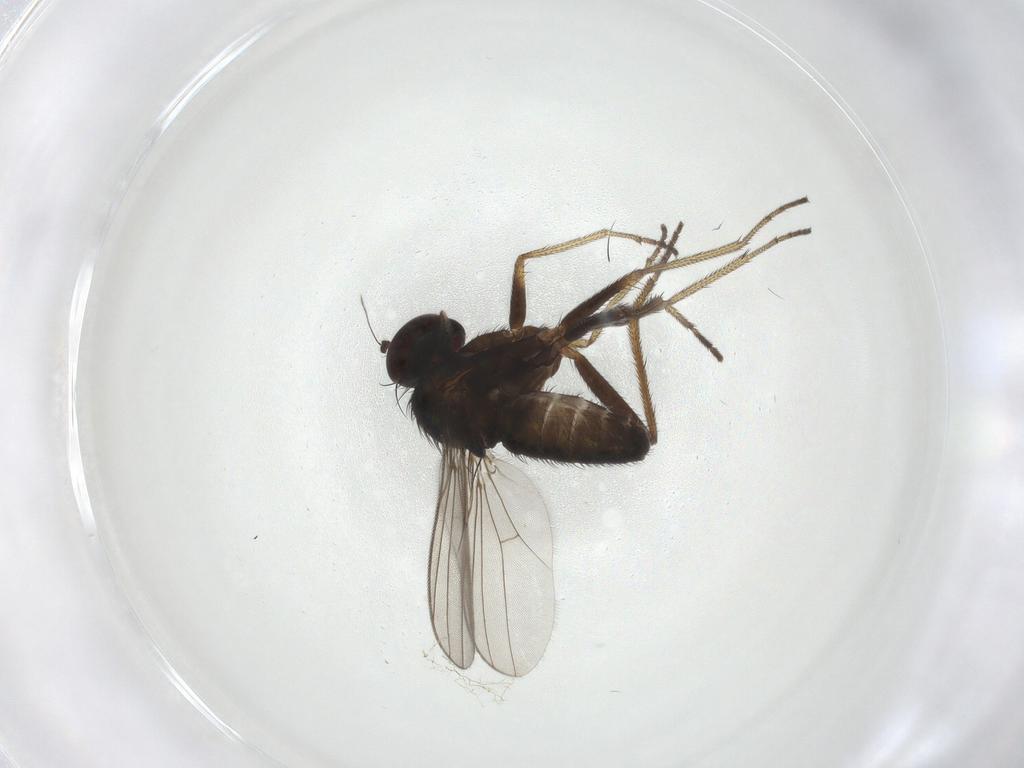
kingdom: Animalia
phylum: Arthropoda
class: Insecta
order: Diptera
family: Dolichopodidae
